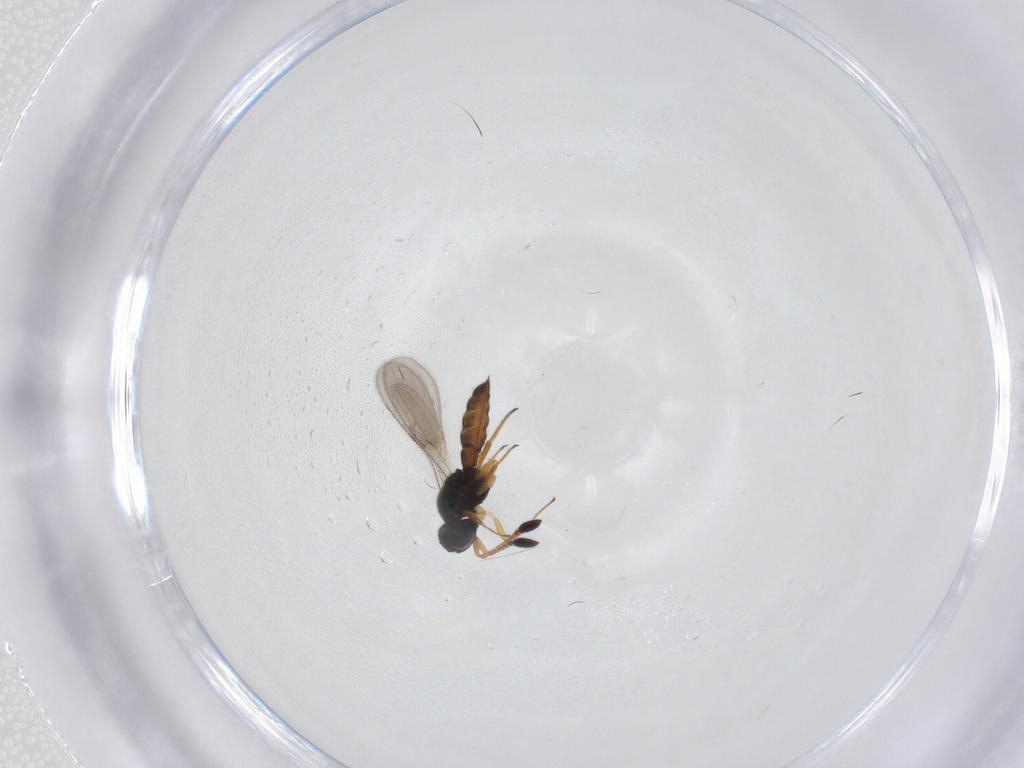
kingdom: Animalia
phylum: Arthropoda
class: Insecta
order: Hymenoptera
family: Scelionidae
